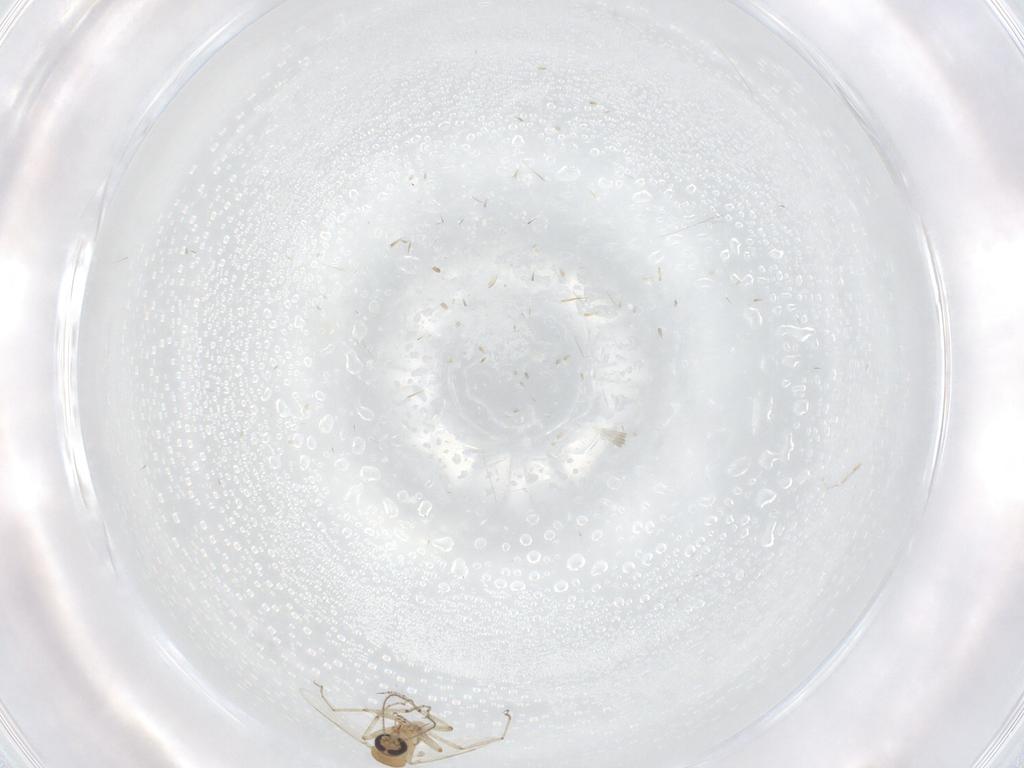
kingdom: Animalia
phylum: Arthropoda
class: Insecta
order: Diptera
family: Ceratopogonidae
